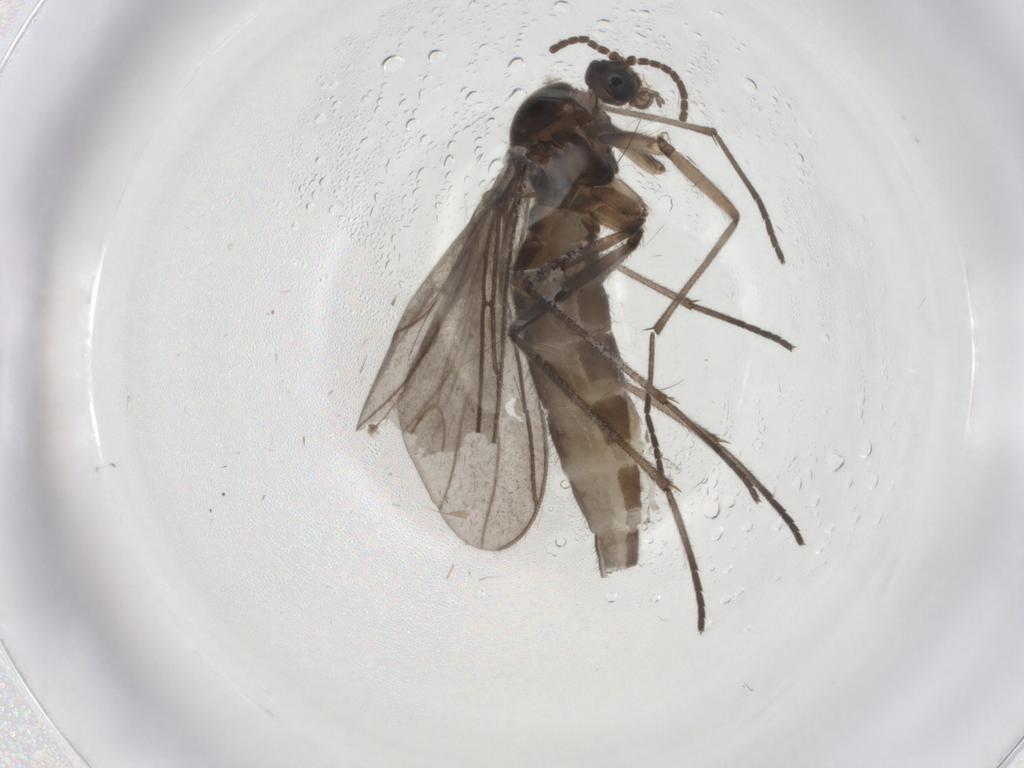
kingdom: Animalia
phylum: Arthropoda
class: Insecta
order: Diptera
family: Sciaridae
